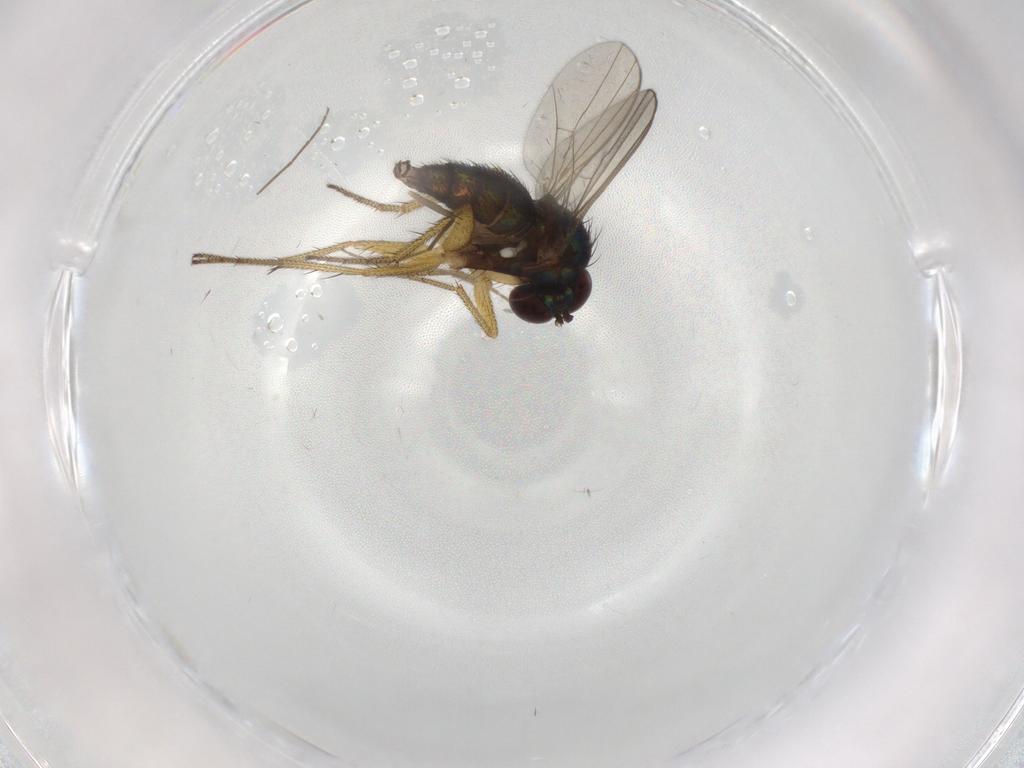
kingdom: Animalia
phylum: Arthropoda
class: Insecta
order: Diptera
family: Chironomidae
